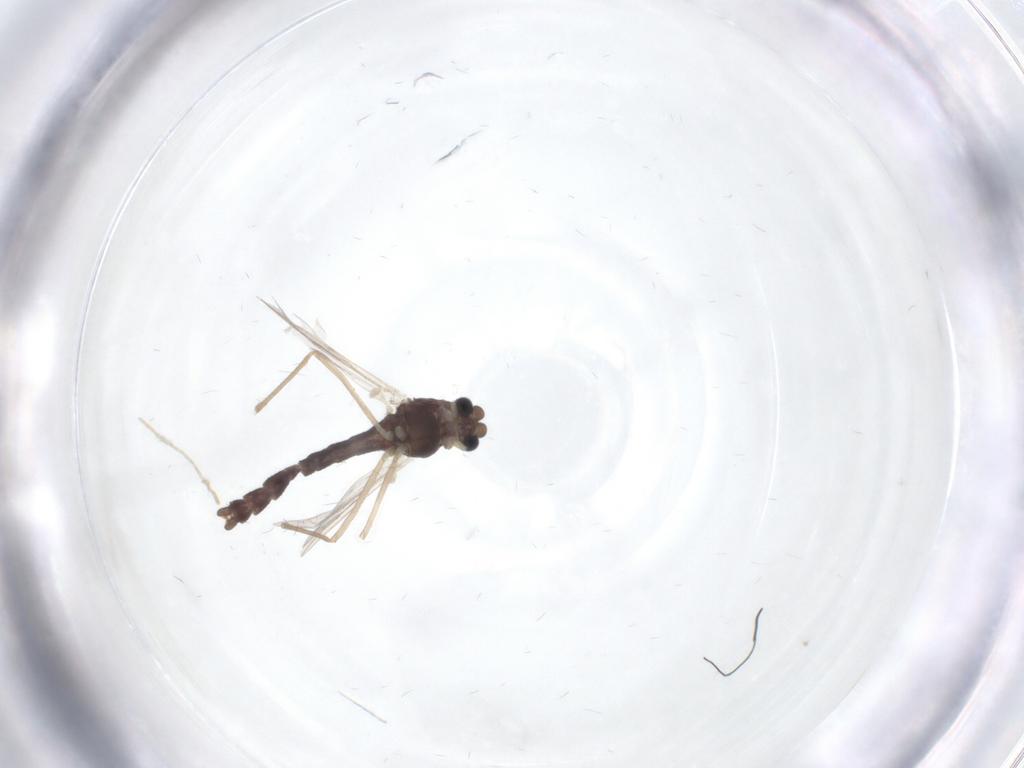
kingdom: Animalia
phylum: Arthropoda
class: Insecta
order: Diptera
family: Chironomidae
